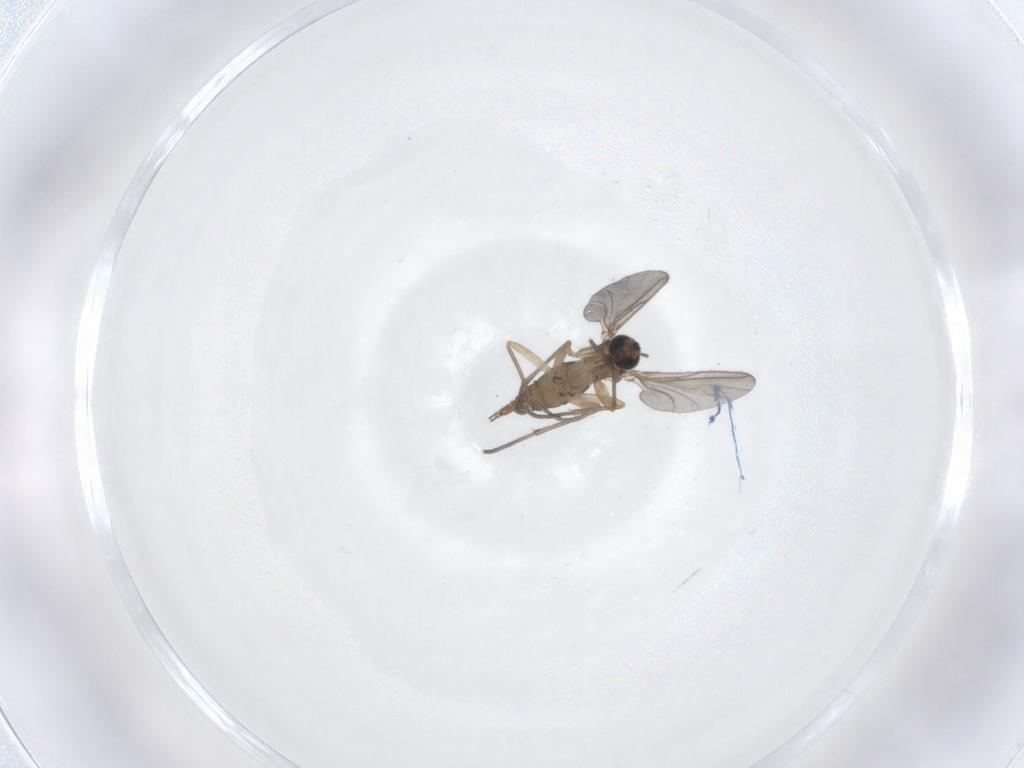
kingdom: Animalia
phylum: Arthropoda
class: Insecta
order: Diptera
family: Sciaridae
